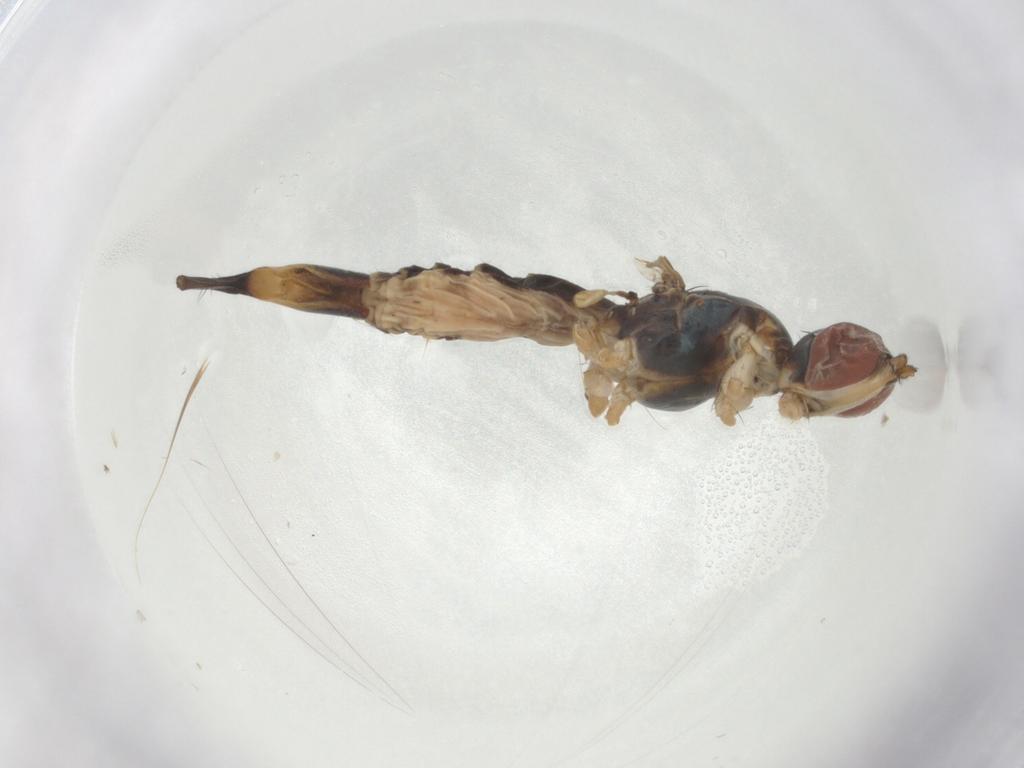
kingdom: Animalia
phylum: Arthropoda
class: Insecta
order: Diptera
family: Micropezidae
